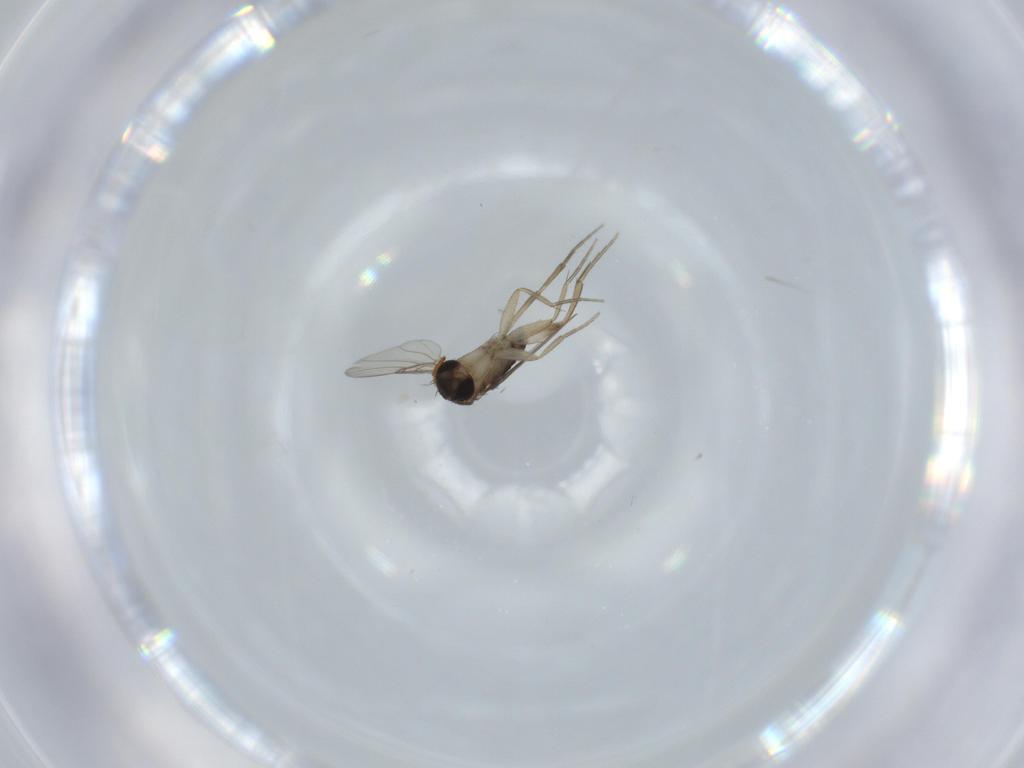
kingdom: Animalia
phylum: Arthropoda
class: Insecta
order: Diptera
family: Phoridae
